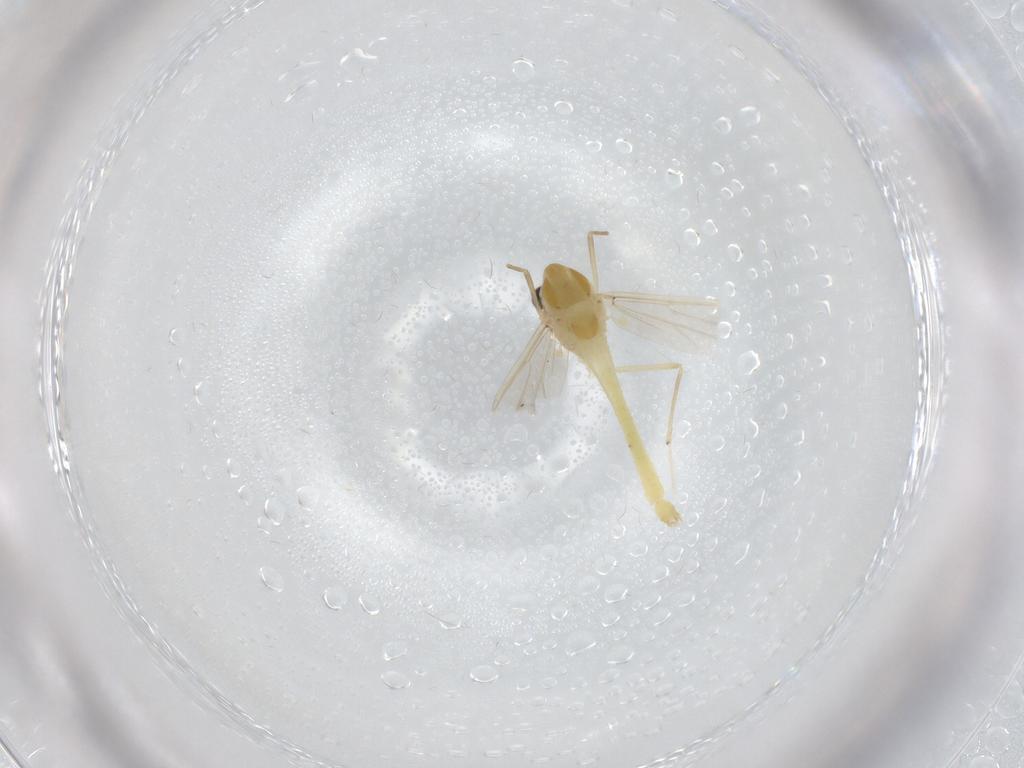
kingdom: Animalia
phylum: Arthropoda
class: Insecta
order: Diptera
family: Chironomidae
